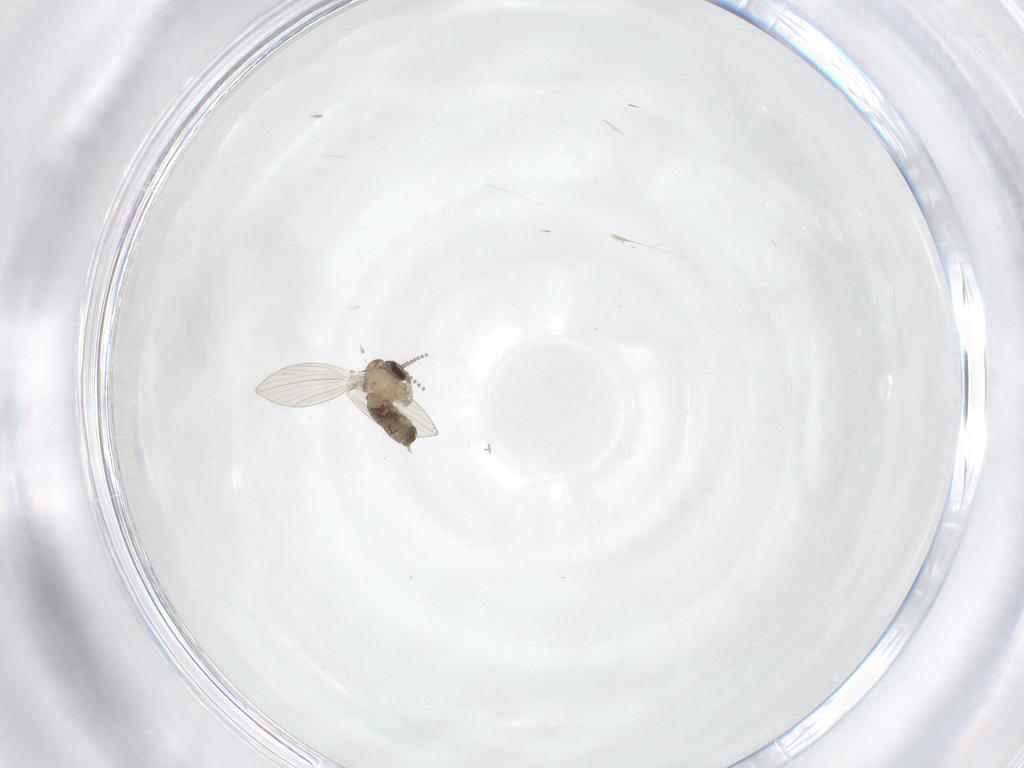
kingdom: Animalia
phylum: Arthropoda
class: Insecta
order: Diptera
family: Psychodidae
